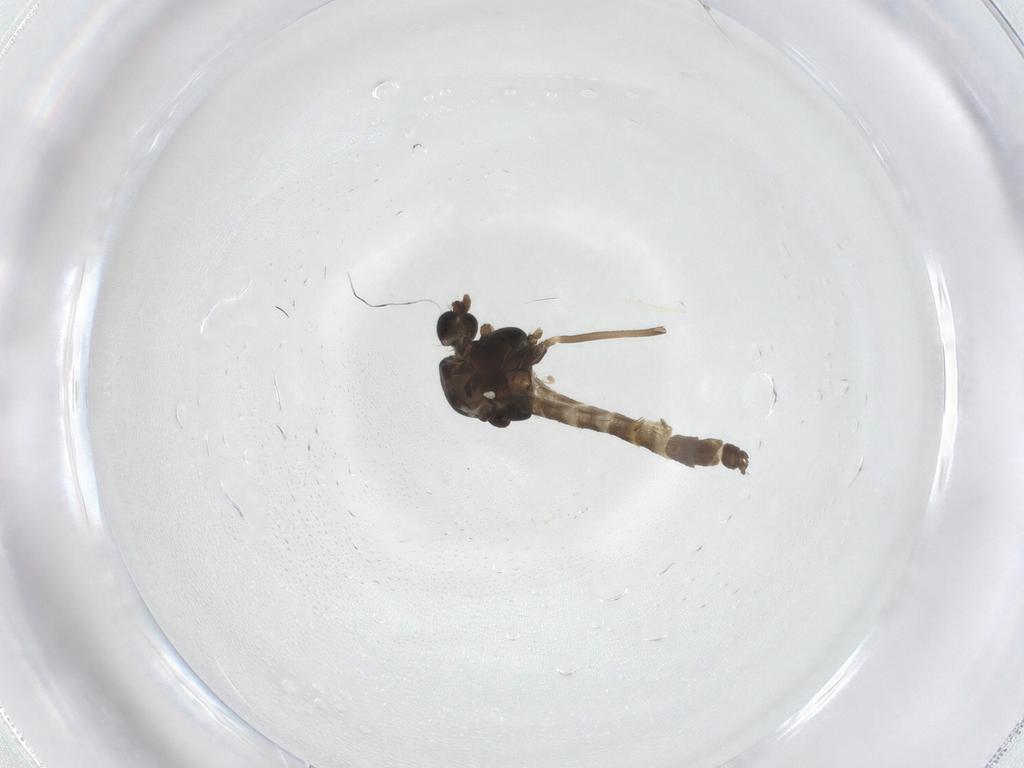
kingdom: Animalia
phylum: Arthropoda
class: Insecta
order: Diptera
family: Chironomidae
